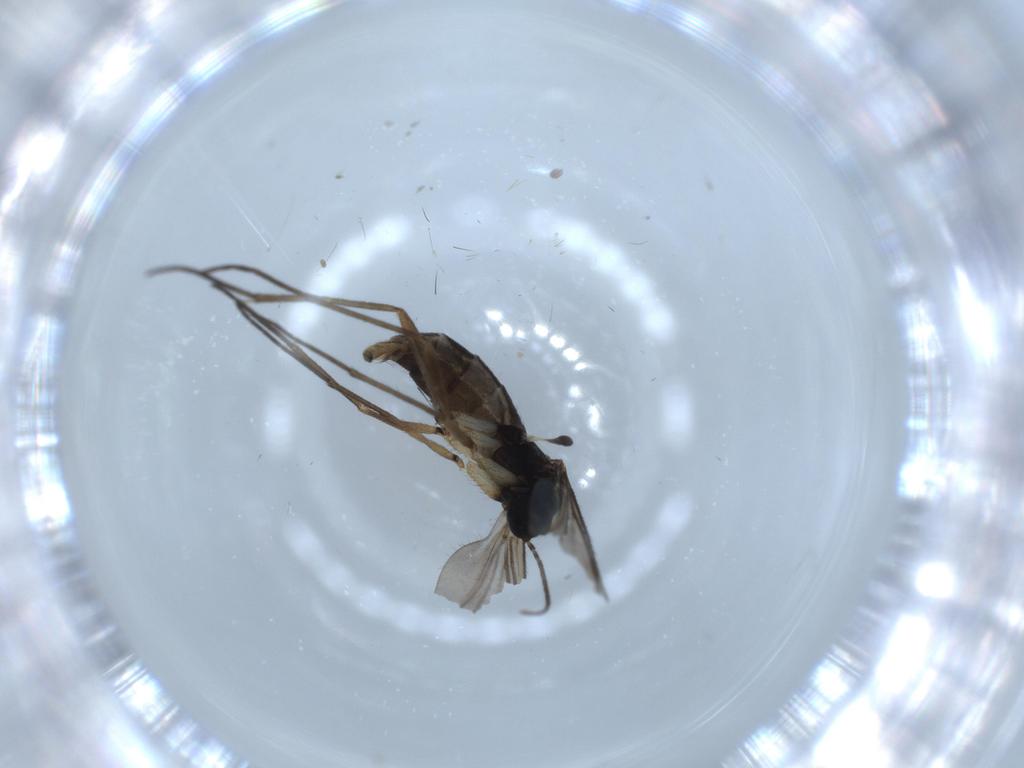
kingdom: Animalia
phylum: Arthropoda
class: Insecta
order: Diptera
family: Sciaridae
